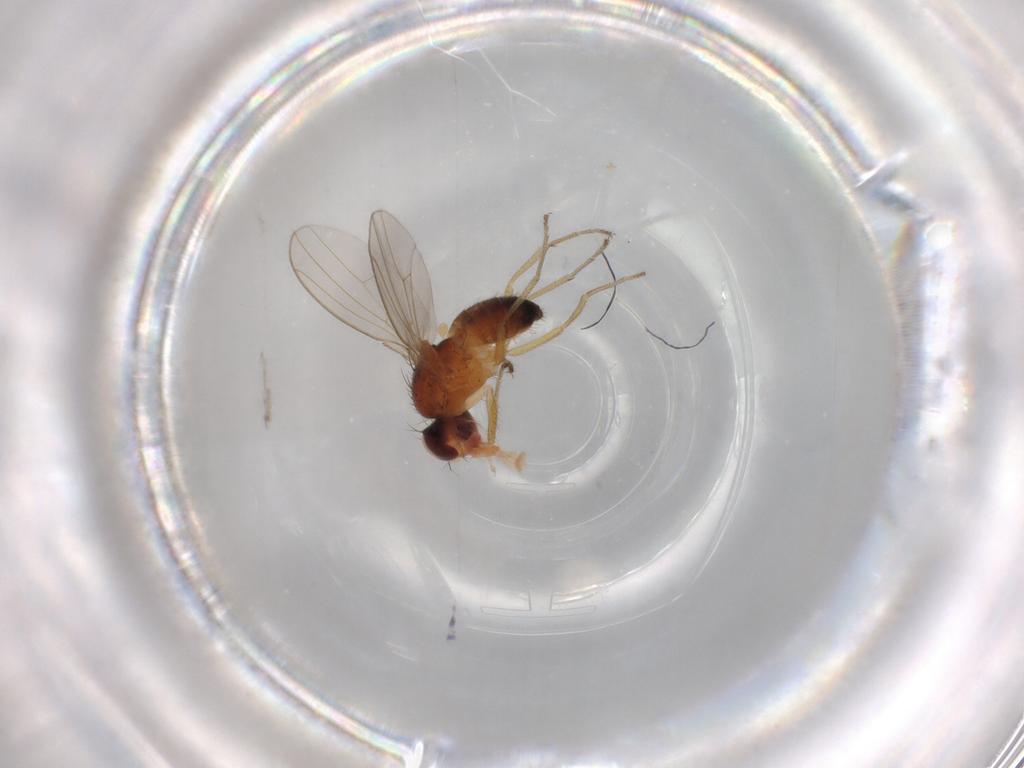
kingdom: Animalia
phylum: Arthropoda
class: Insecta
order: Diptera
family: Drosophilidae
